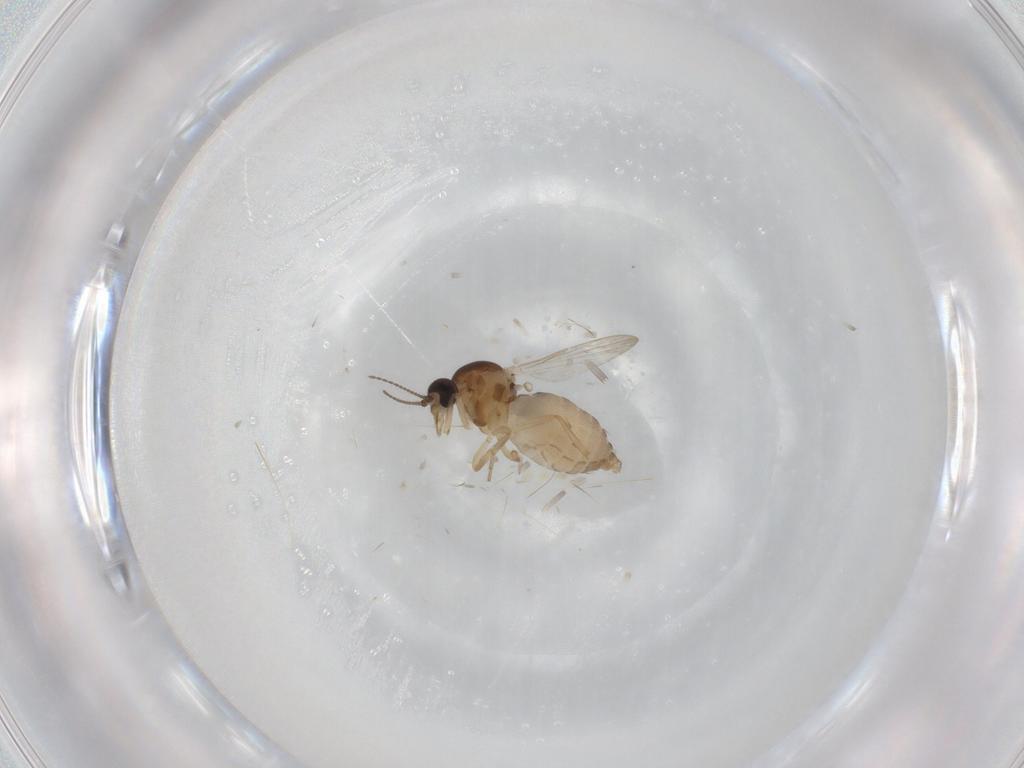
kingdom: Animalia
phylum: Arthropoda
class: Insecta
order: Diptera
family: Ceratopogonidae
